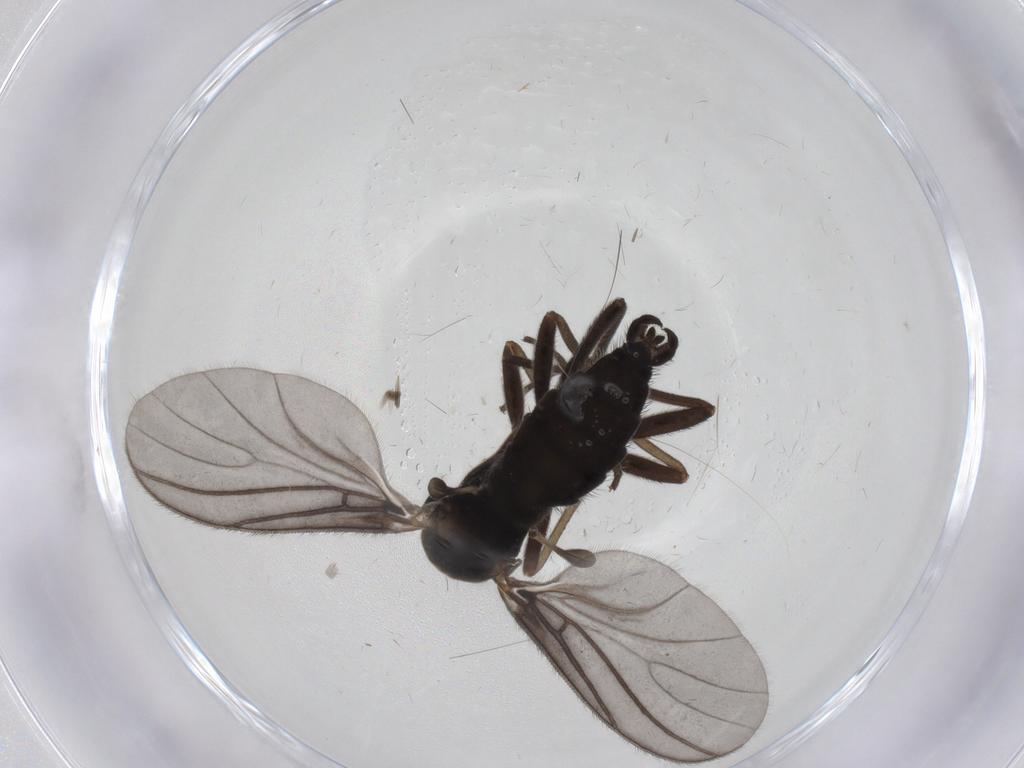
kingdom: Animalia
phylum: Arthropoda
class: Insecta
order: Diptera
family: Sciaridae
